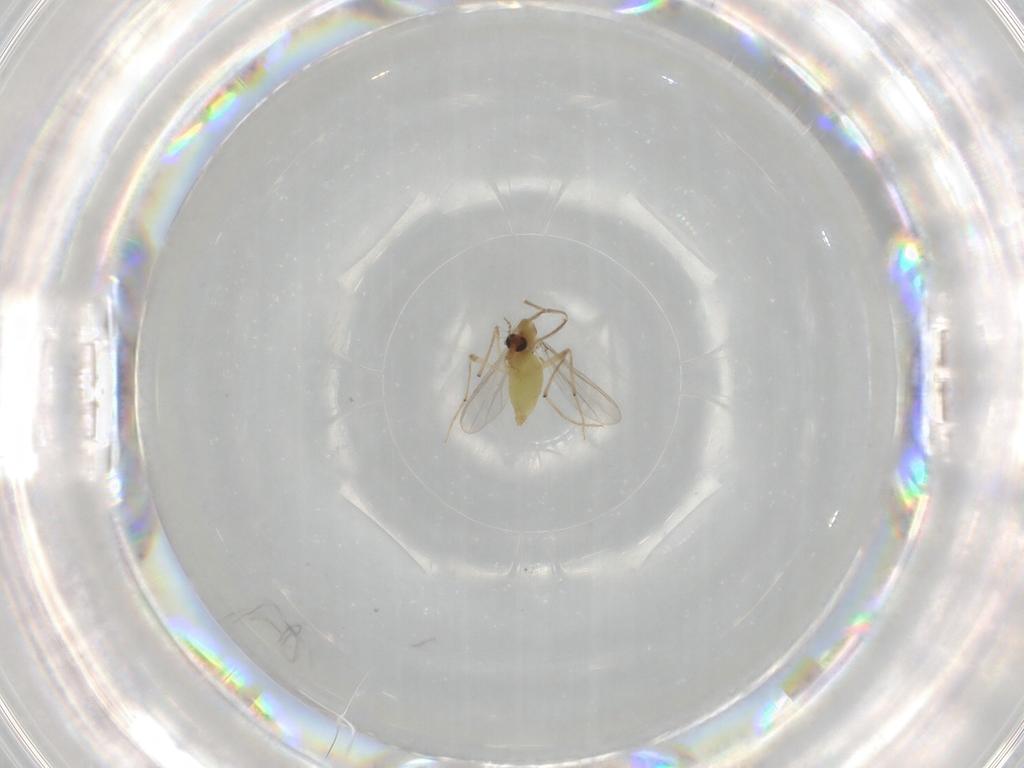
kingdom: Animalia
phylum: Arthropoda
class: Insecta
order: Diptera
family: Chironomidae
